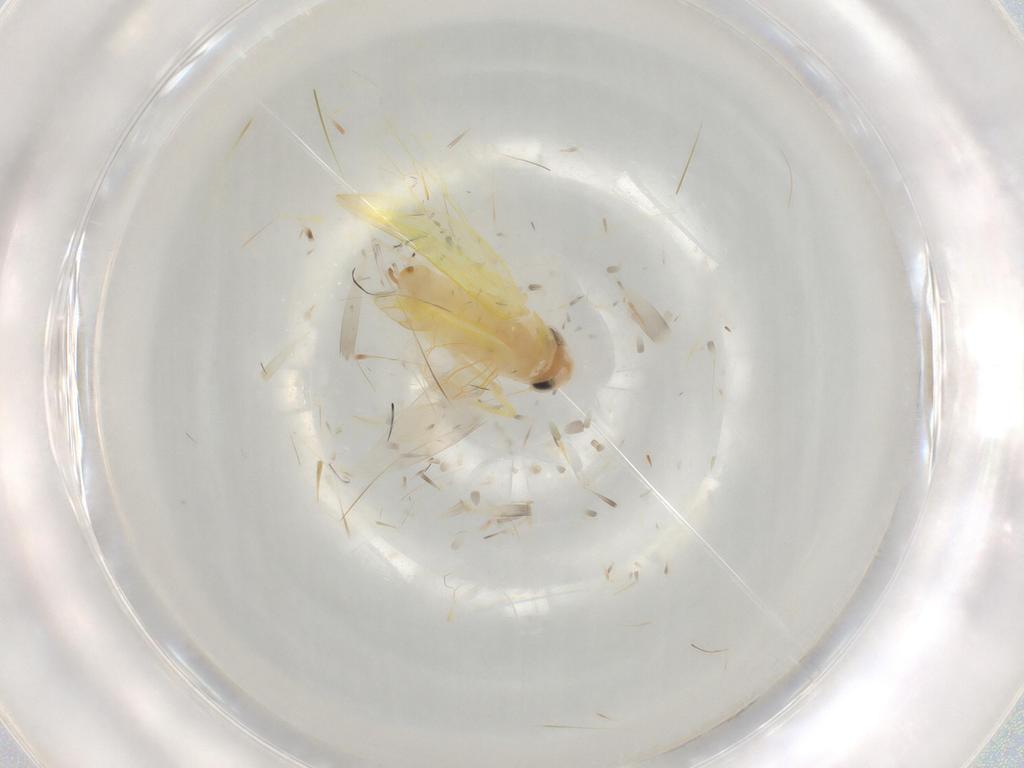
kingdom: Animalia
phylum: Arthropoda
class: Insecta
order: Hemiptera
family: Cicadellidae
